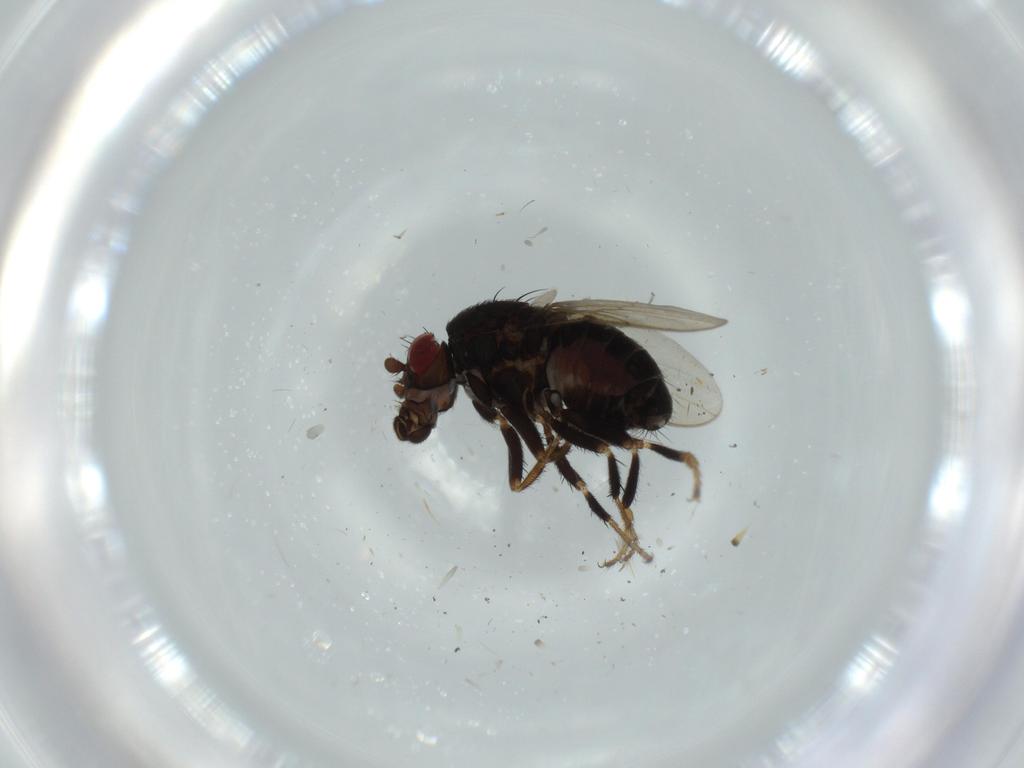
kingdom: Animalia
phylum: Arthropoda
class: Insecta
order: Diptera
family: Sphaeroceridae
